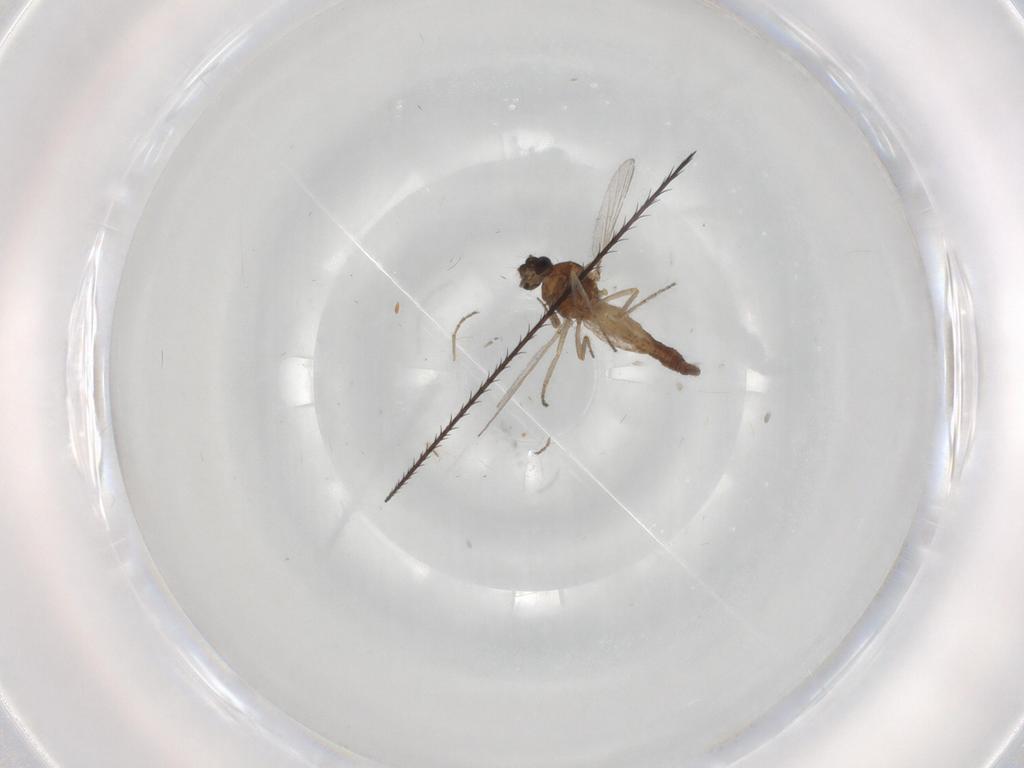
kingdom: Animalia
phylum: Arthropoda
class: Insecta
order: Diptera
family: Ceratopogonidae
